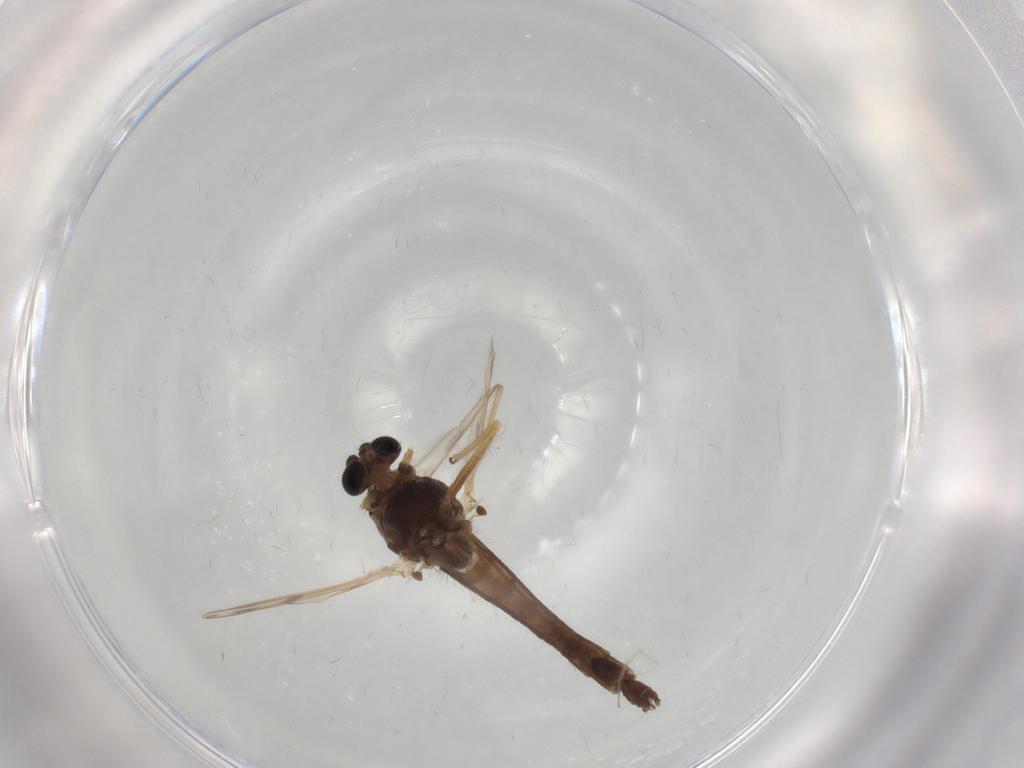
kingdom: Animalia
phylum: Arthropoda
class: Insecta
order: Diptera
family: Chironomidae
